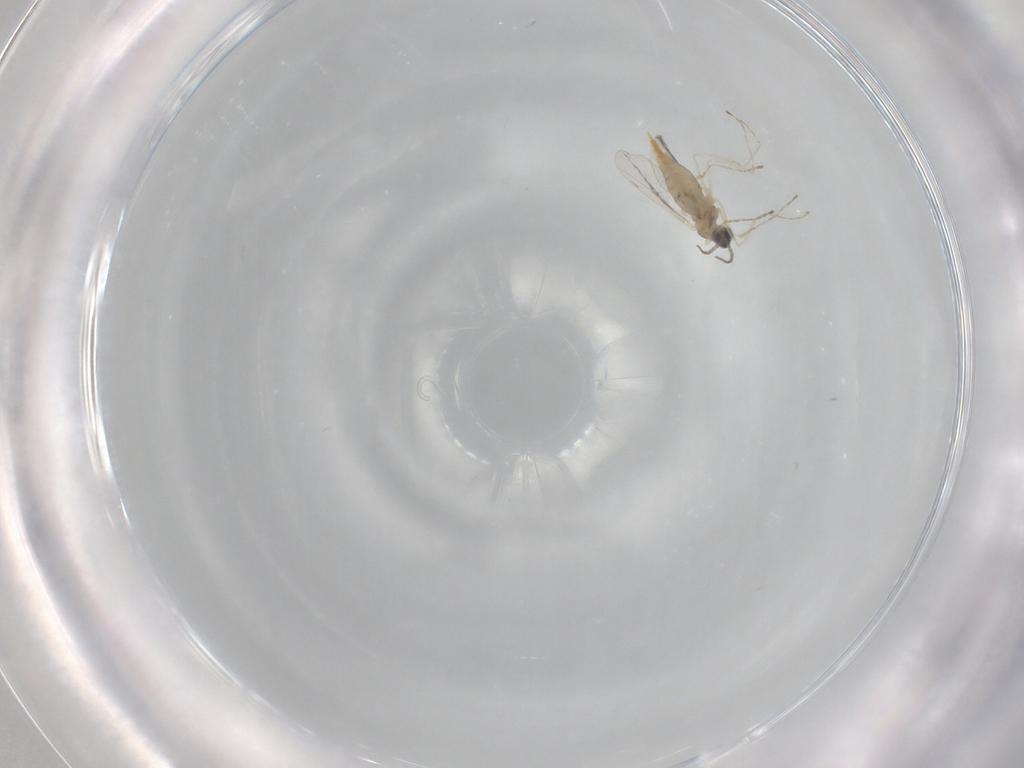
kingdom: Animalia
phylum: Arthropoda
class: Insecta
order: Diptera
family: Cecidomyiidae
